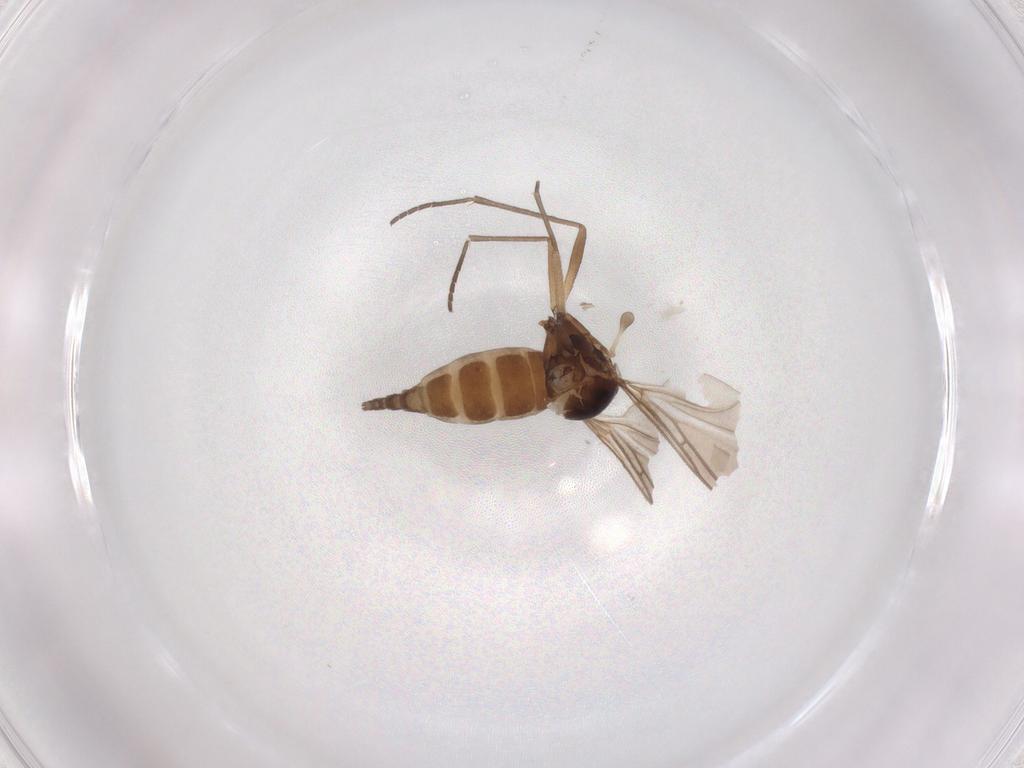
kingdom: Animalia
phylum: Arthropoda
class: Insecta
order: Diptera
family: Sciaridae
